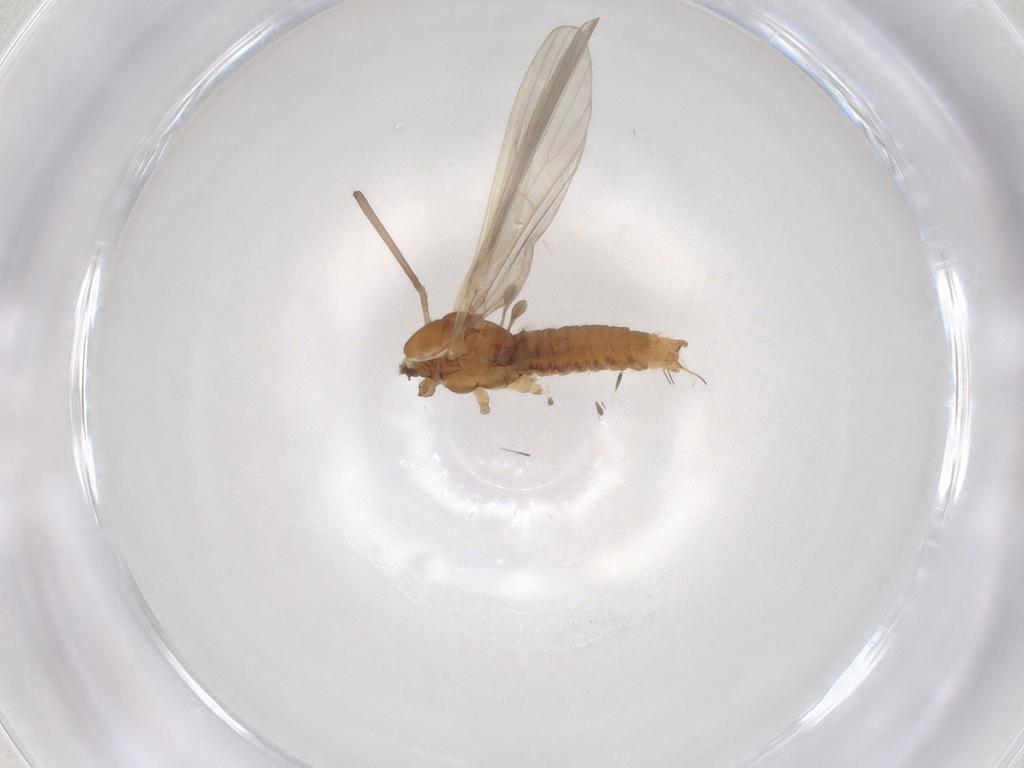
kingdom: Animalia
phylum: Arthropoda
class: Insecta
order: Diptera
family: Limoniidae
